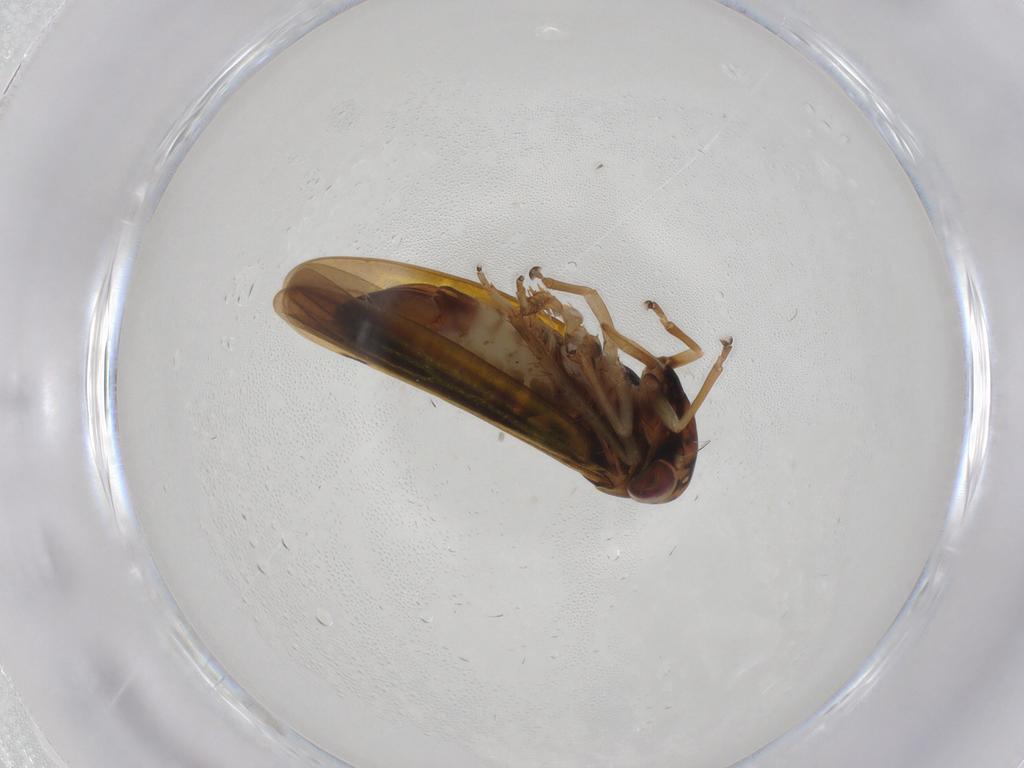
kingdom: Animalia
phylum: Arthropoda
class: Insecta
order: Hemiptera
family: Cicadellidae
